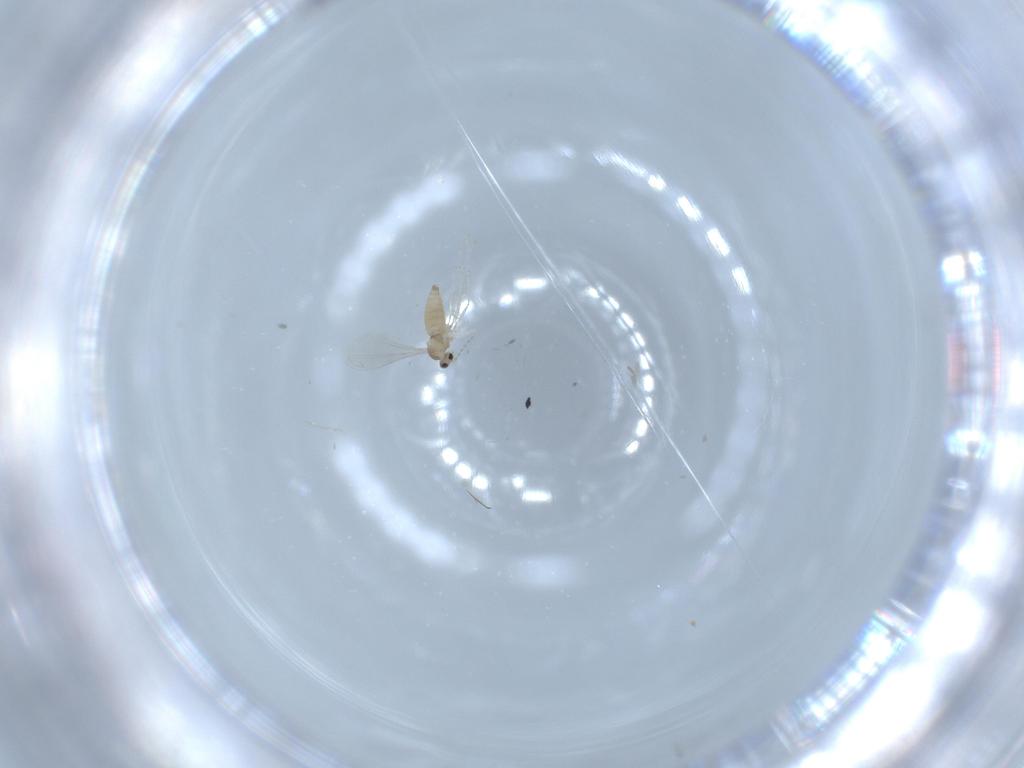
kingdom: Animalia
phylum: Arthropoda
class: Insecta
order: Diptera
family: Cecidomyiidae
